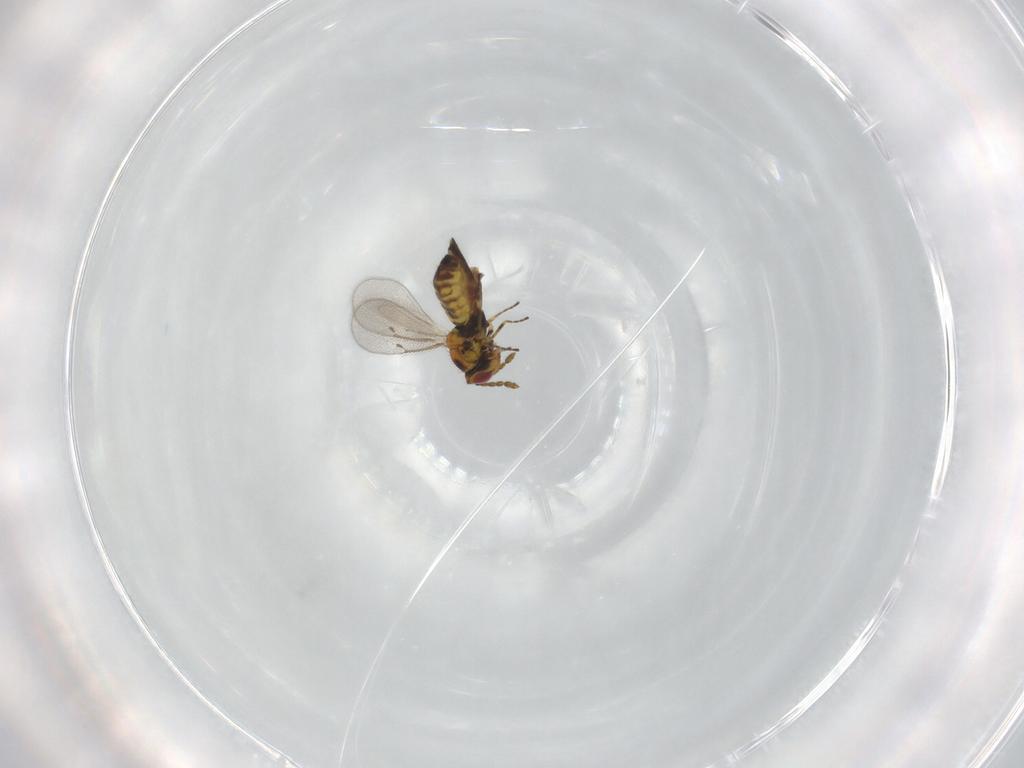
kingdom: Animalia
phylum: Arthropoda
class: Insecta
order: Hymenoptera
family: Eulophidae
